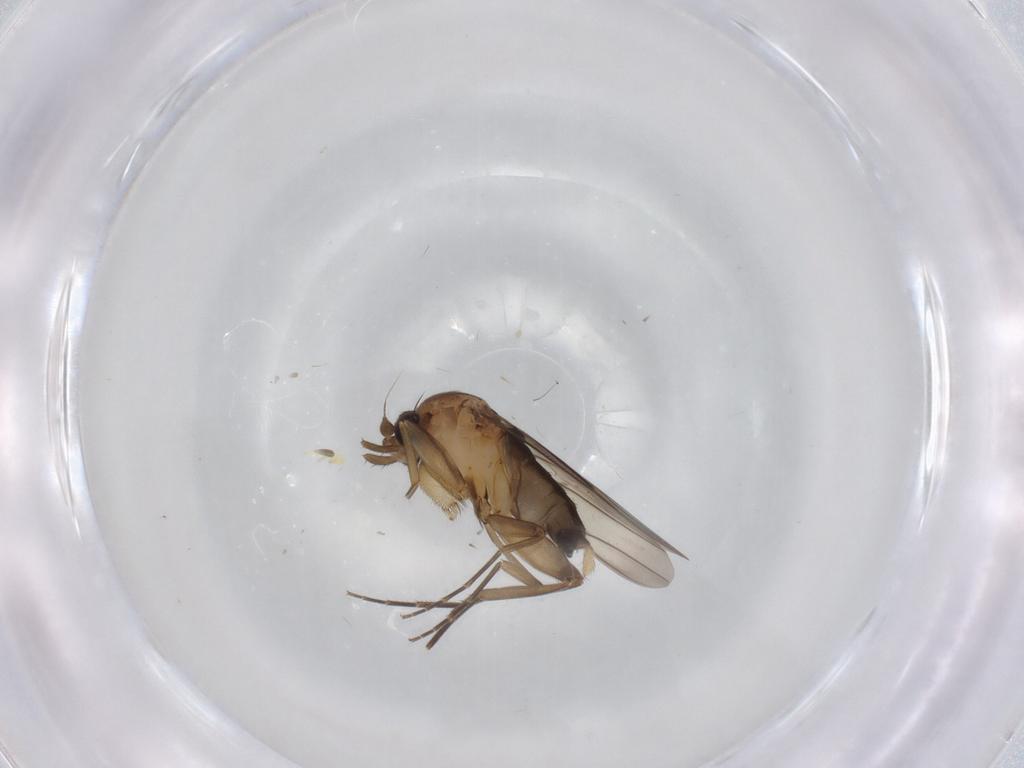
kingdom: Animalia
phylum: Arthropoda
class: Insecta
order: Diptera
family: Phoridae
